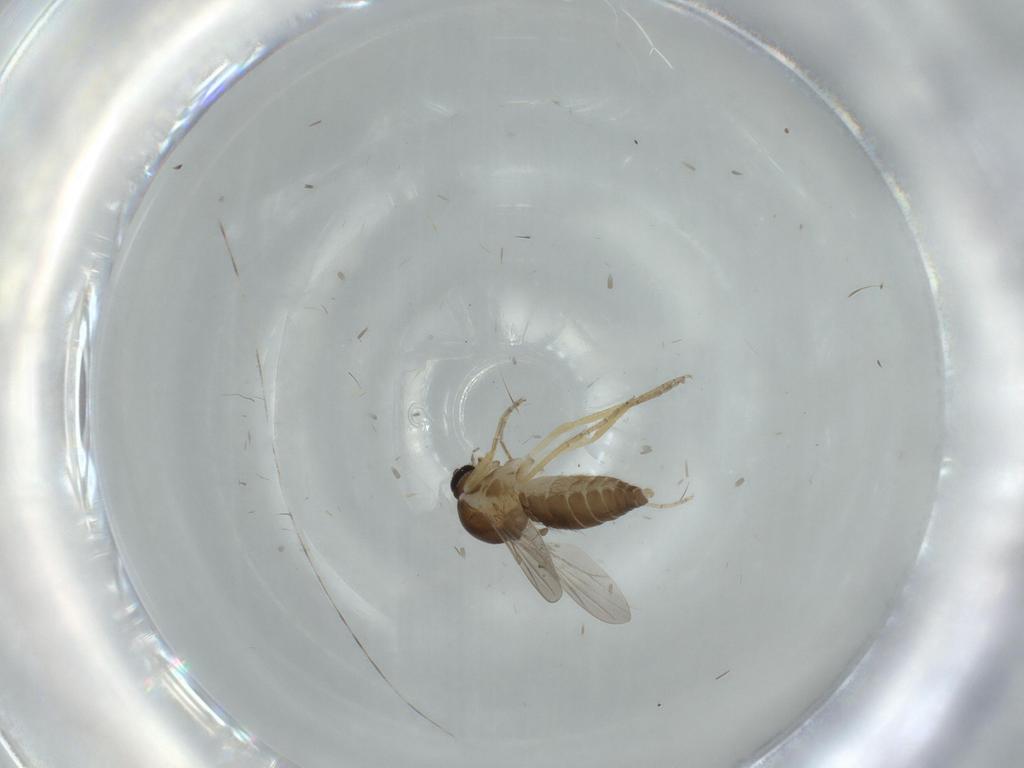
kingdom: Animalia
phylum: Arthropoda
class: Insecta
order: Diptera
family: Ceratopogonidae
